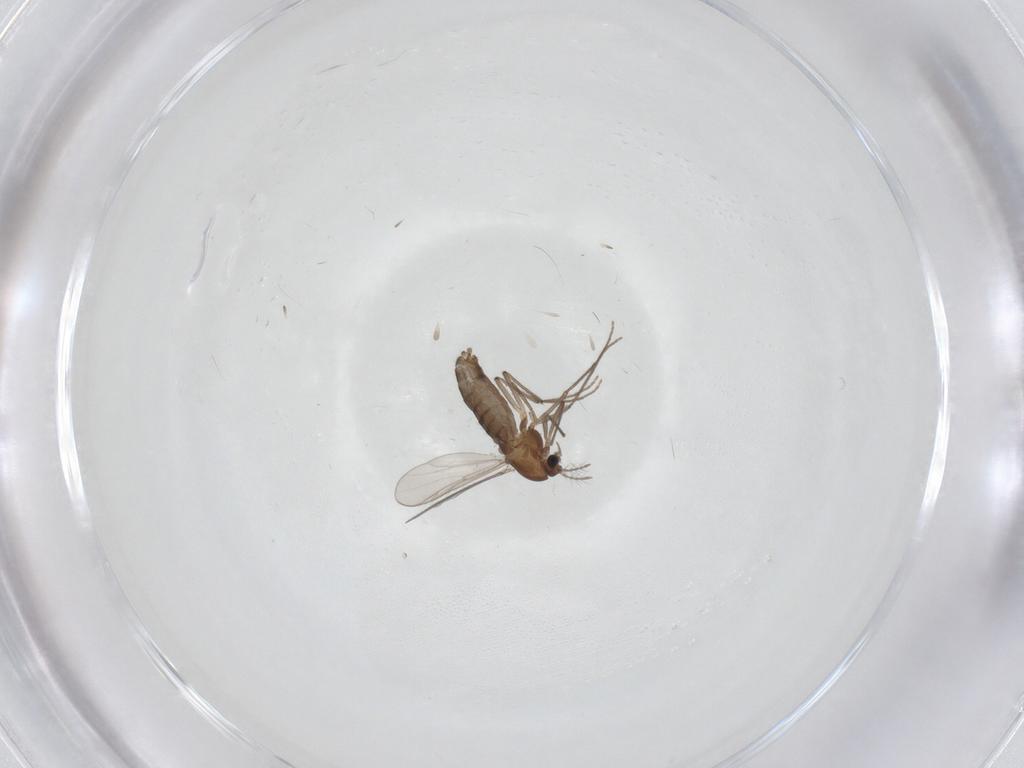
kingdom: Animalia
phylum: Arthropoda
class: Insecta
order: Diptera
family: Chironomidae
